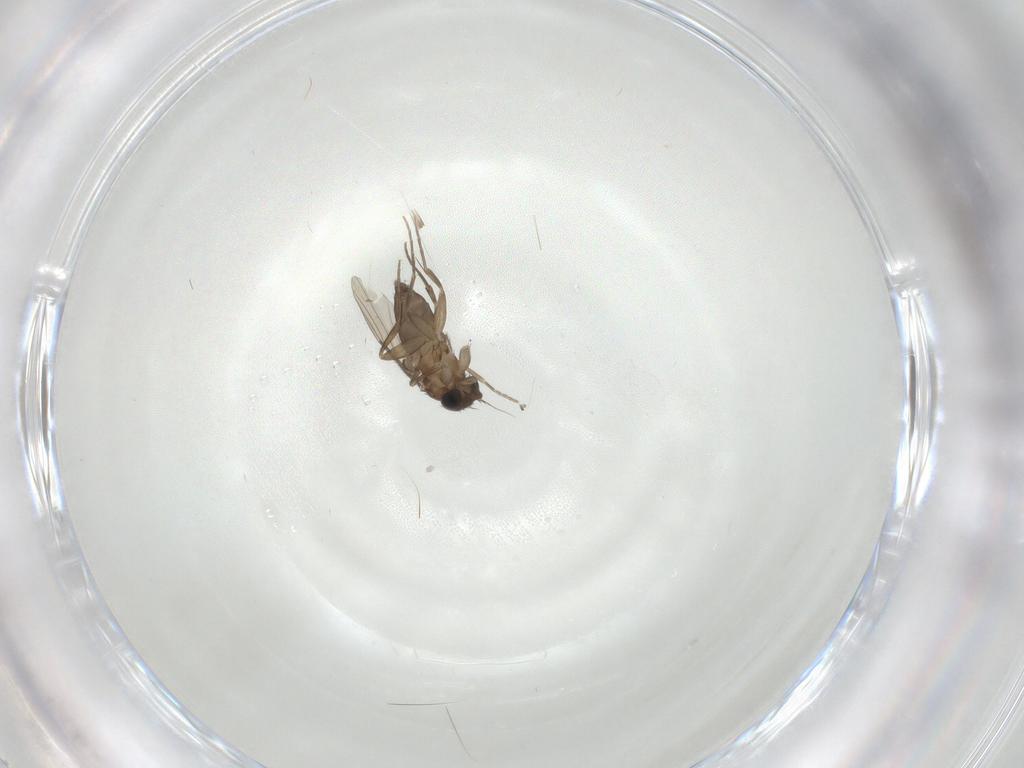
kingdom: Animalia
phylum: Arthropoda
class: Insecta
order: Diptera
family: Phoridae
